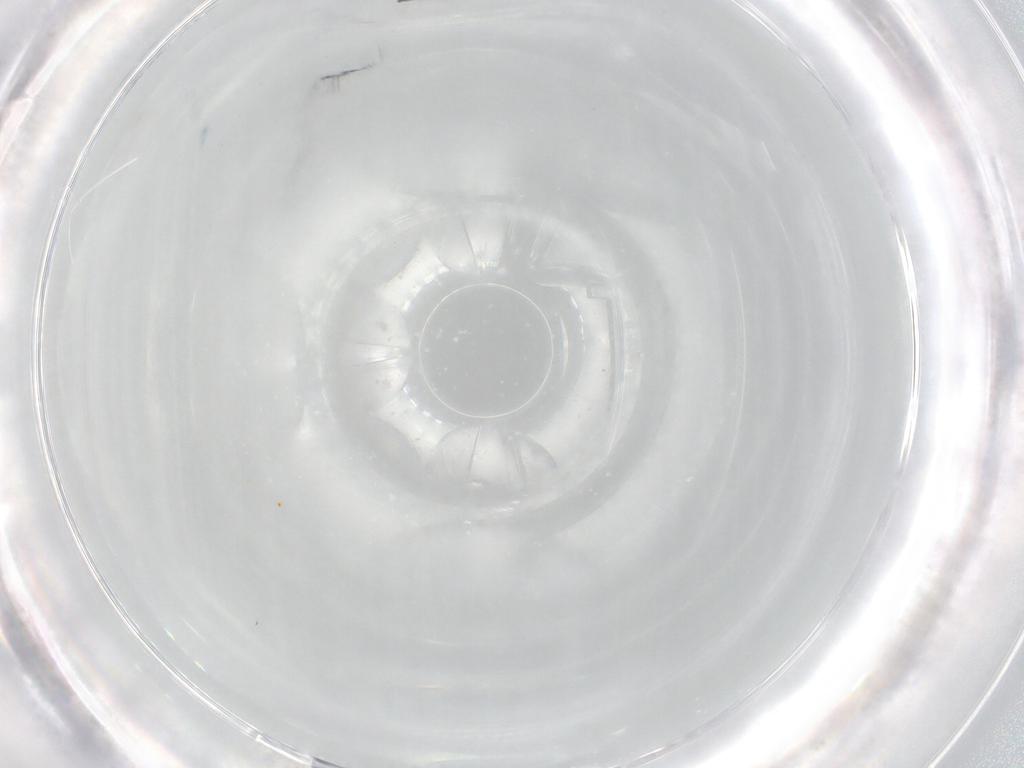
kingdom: Animalia
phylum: Arthropoda
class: Insecta
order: Diptera
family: Cecidomyiidae
